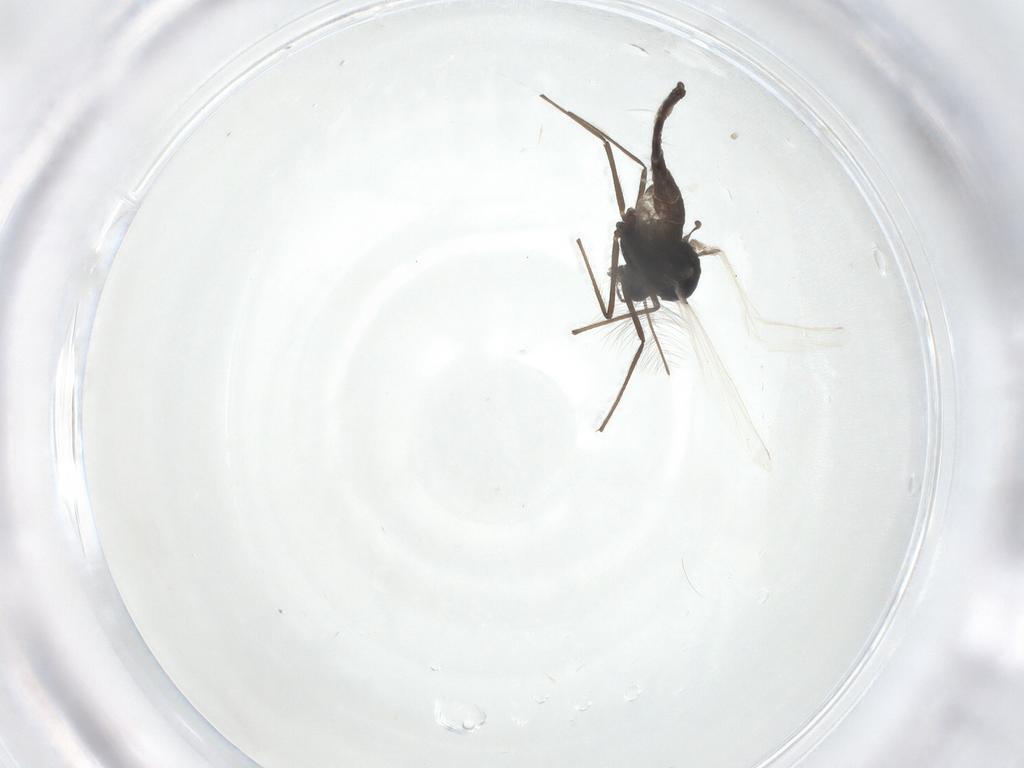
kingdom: Animalia
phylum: Arthropoda
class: Insecta
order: Diptera
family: Cecidomyiidae
